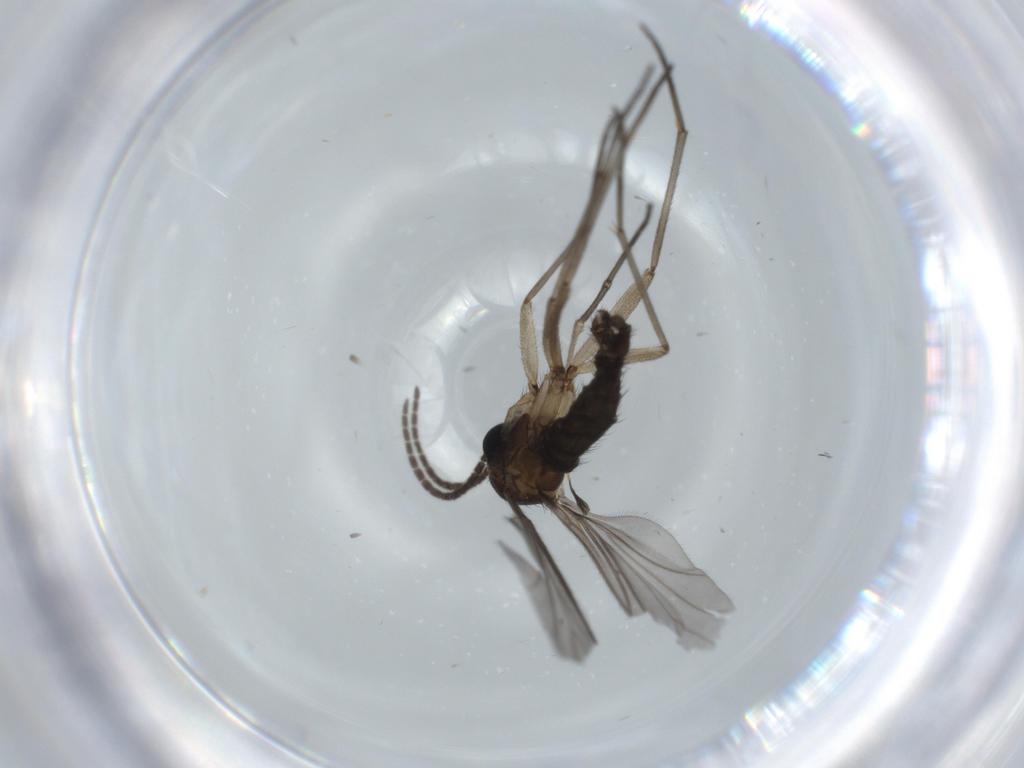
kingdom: Animalia
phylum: Arthropoda
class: Insecta
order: Diptera
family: Sciaridae
